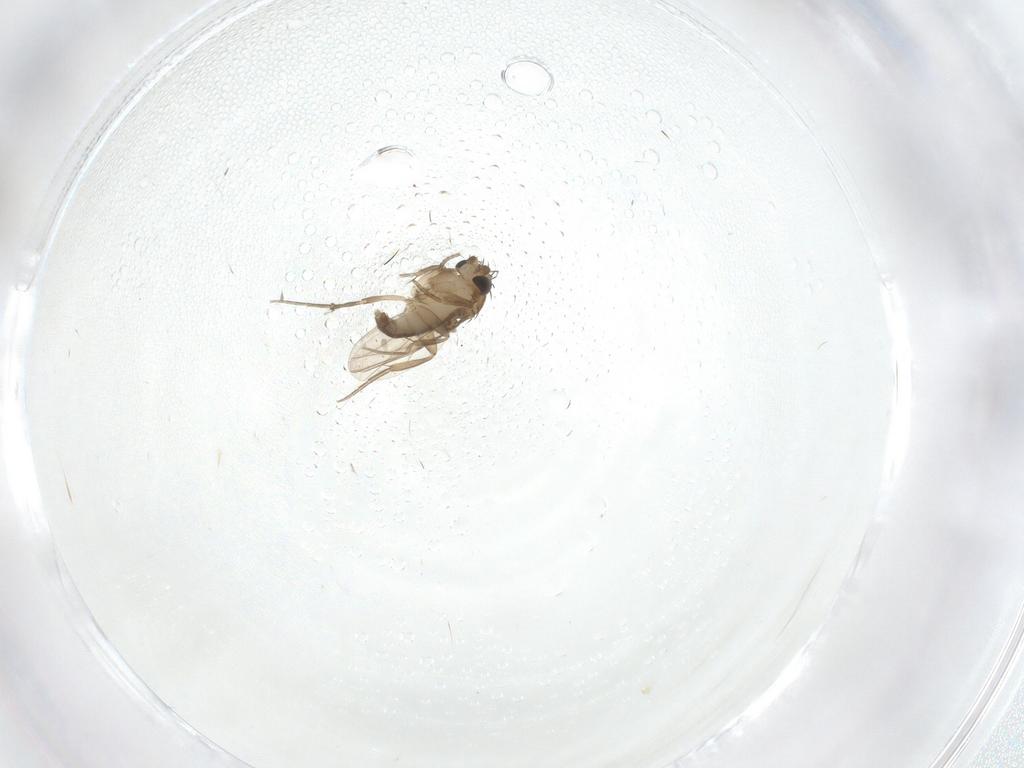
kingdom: Animalia
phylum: Arthropoda
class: Insecta
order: Diptera
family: Phoridae
